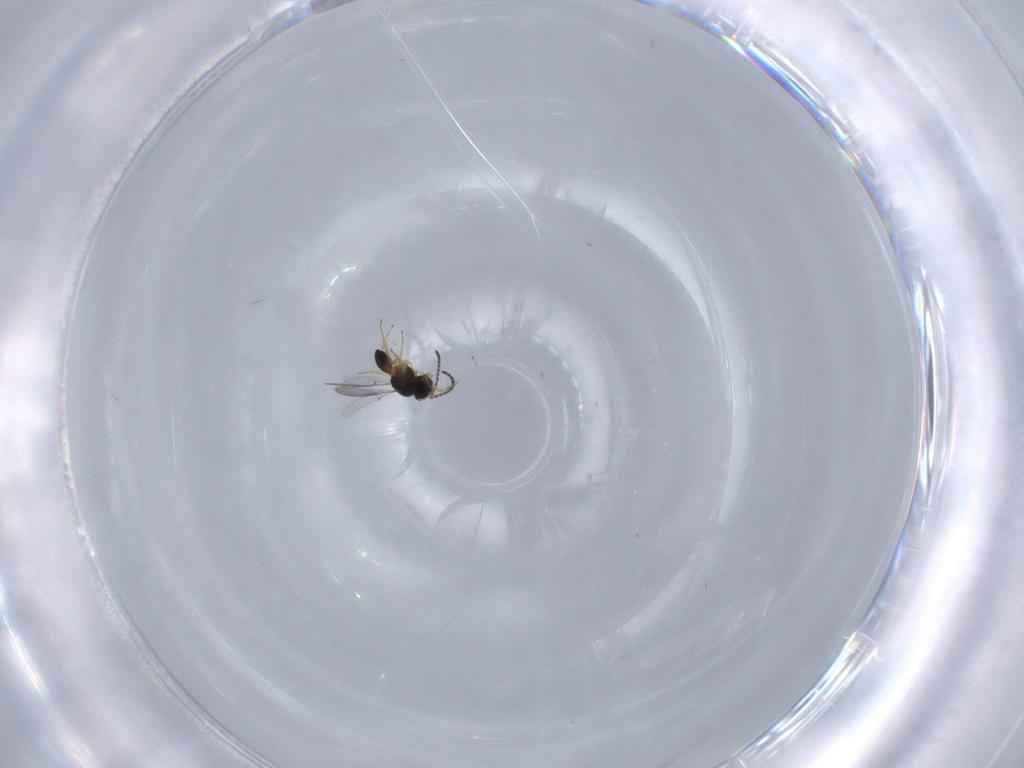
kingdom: Animalia
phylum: Arthropoda
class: Insecta
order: Hymenoptera
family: Scelionidae
